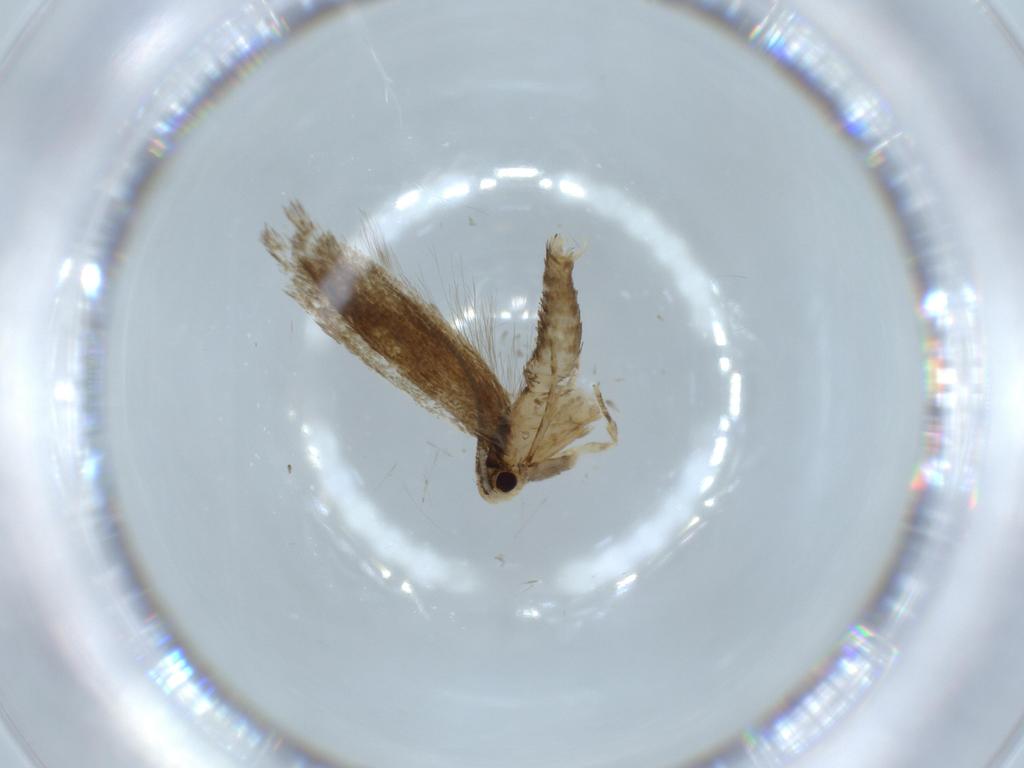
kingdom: Animalia
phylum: Arthropoda
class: Insecta
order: Lepidoptera
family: Tineidae
